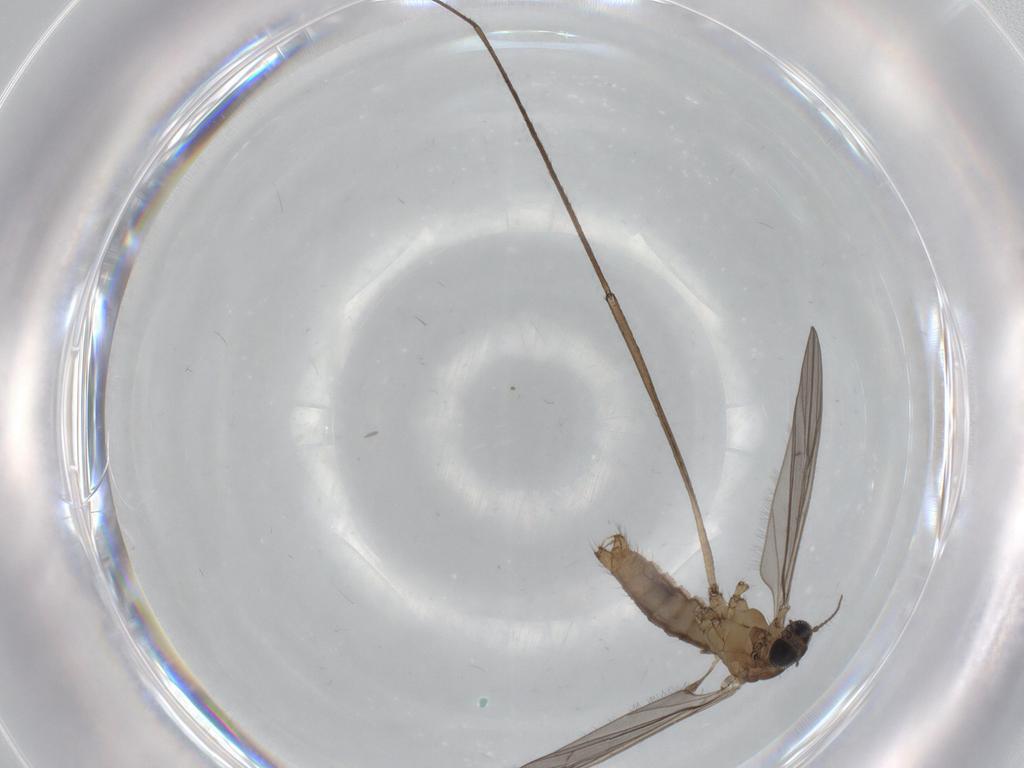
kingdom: Animalia
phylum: Arthropoda
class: Insecta
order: Diptera
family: Sciaridae
